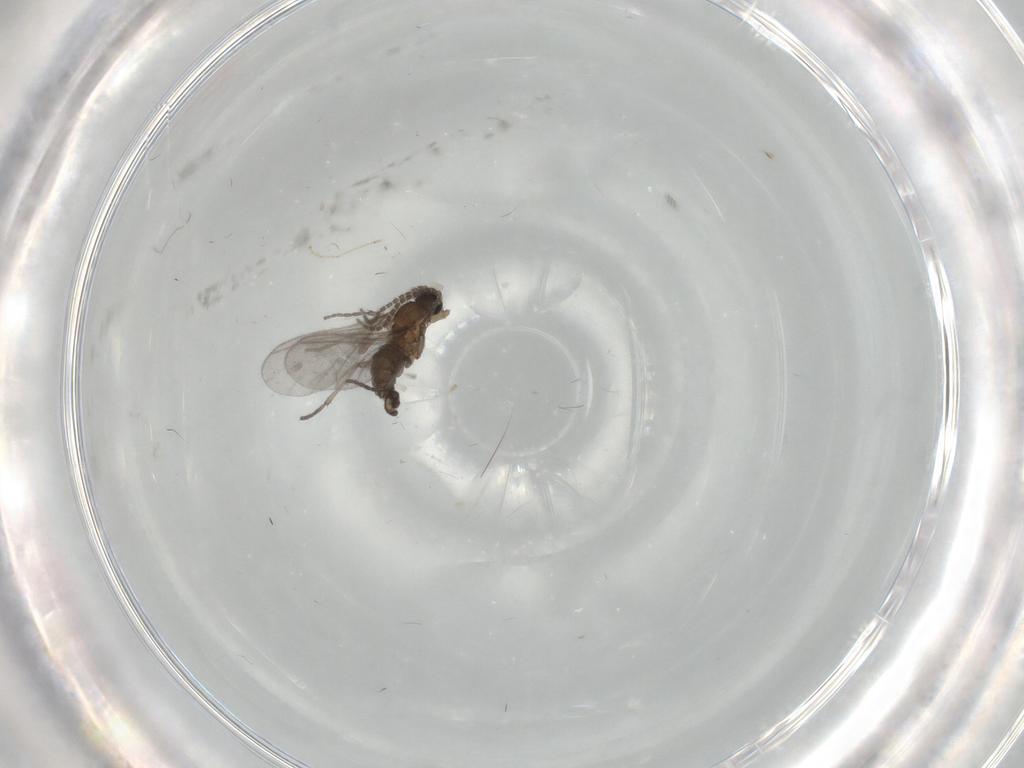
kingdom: Animalia
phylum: Arthropoda
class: Insecta
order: Diptera
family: Sciaridae
